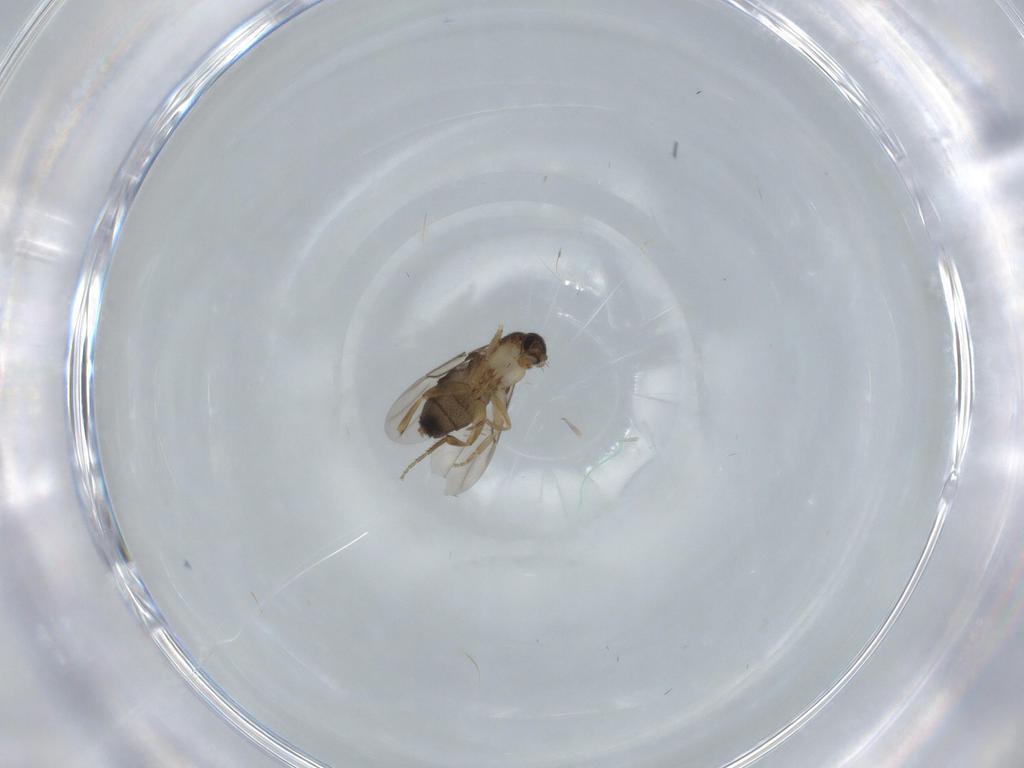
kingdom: Animalia
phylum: Arthropoda
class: Insecta
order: Diptera
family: Phoridae
